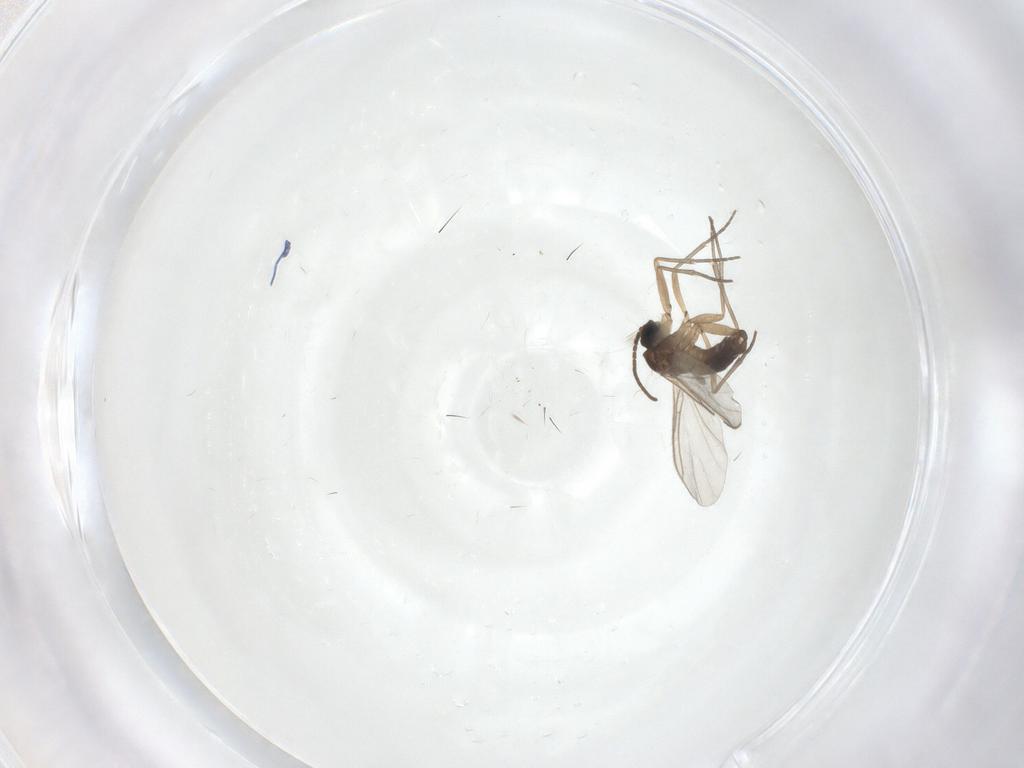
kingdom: Animalia
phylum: Arthropoda
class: Insecta
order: Diptera
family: Sciaridae
